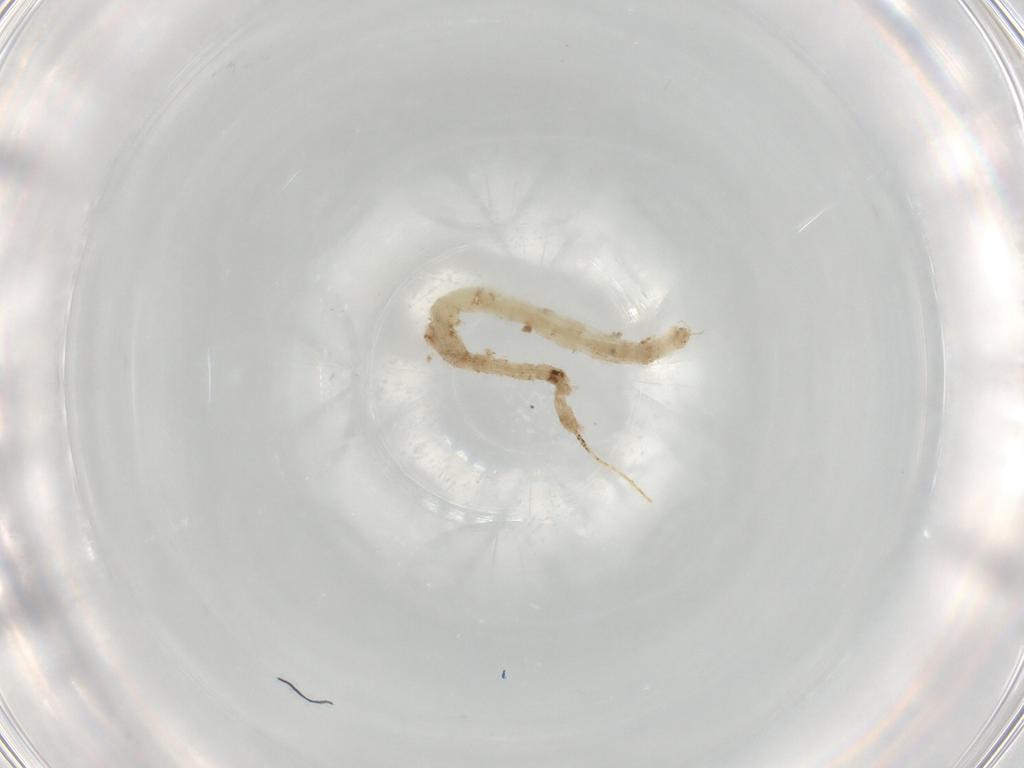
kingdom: Animalia
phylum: Arthropoda
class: Insecta
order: Diptera
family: Chironomidae
